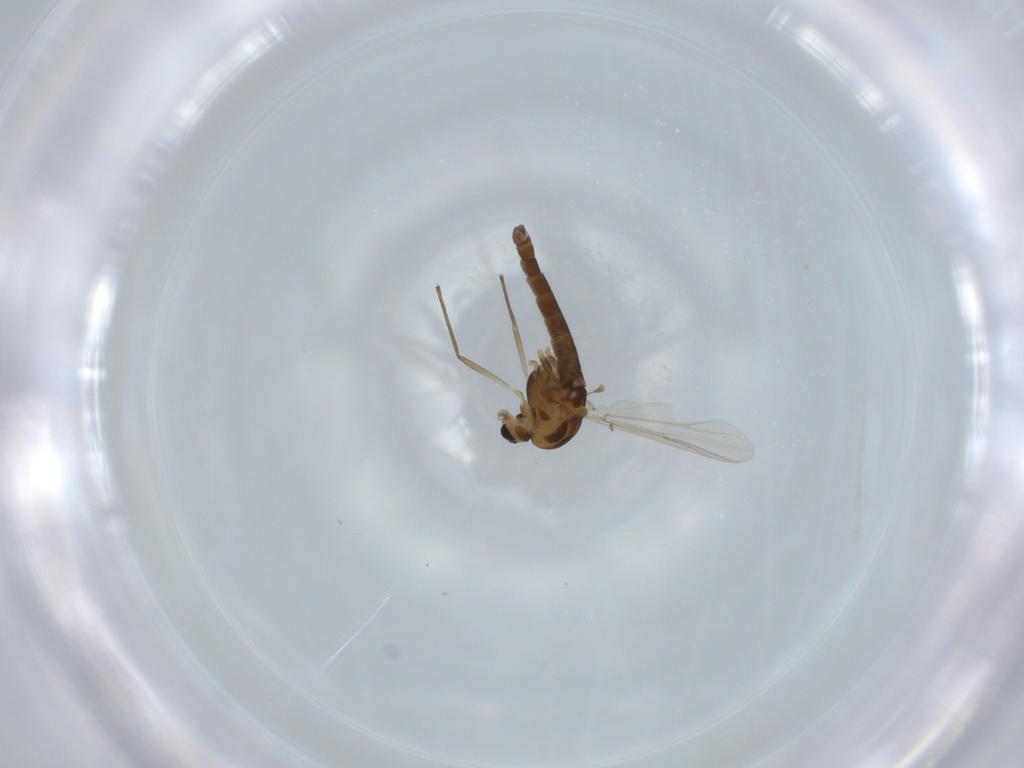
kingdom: Animalia
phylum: Arthropoda
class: Insecta
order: Diptera
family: Chironomidae
